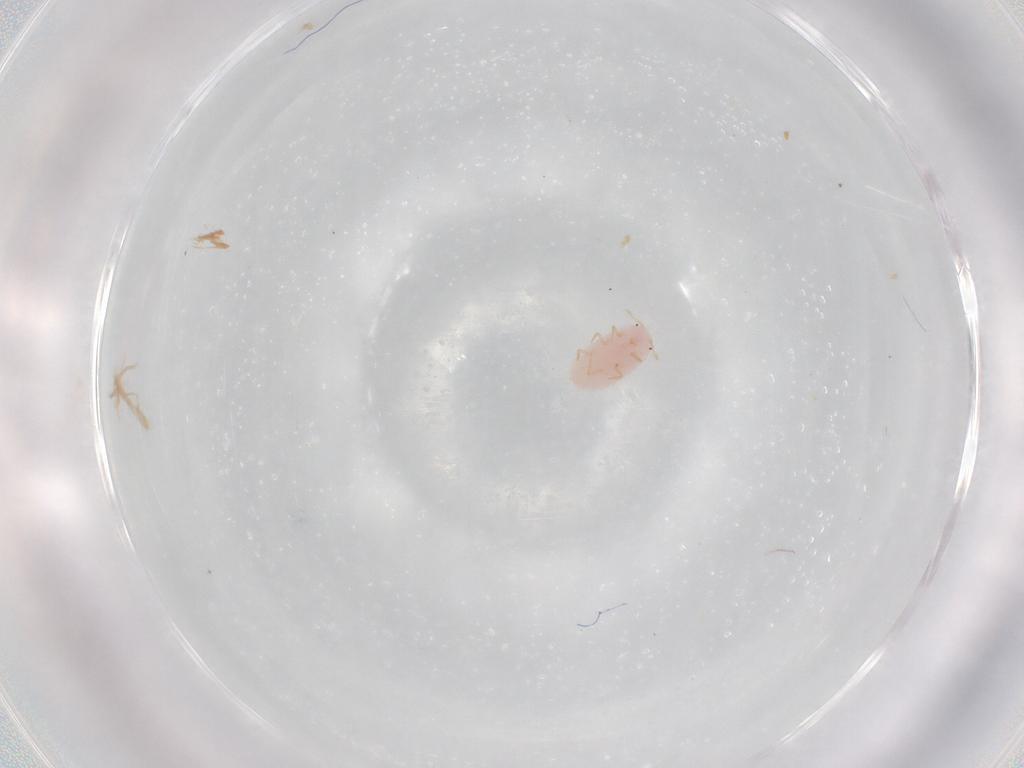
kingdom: Animalia
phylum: Arthropoda
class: Insecta
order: Hemiptera
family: Pseudococcidae
